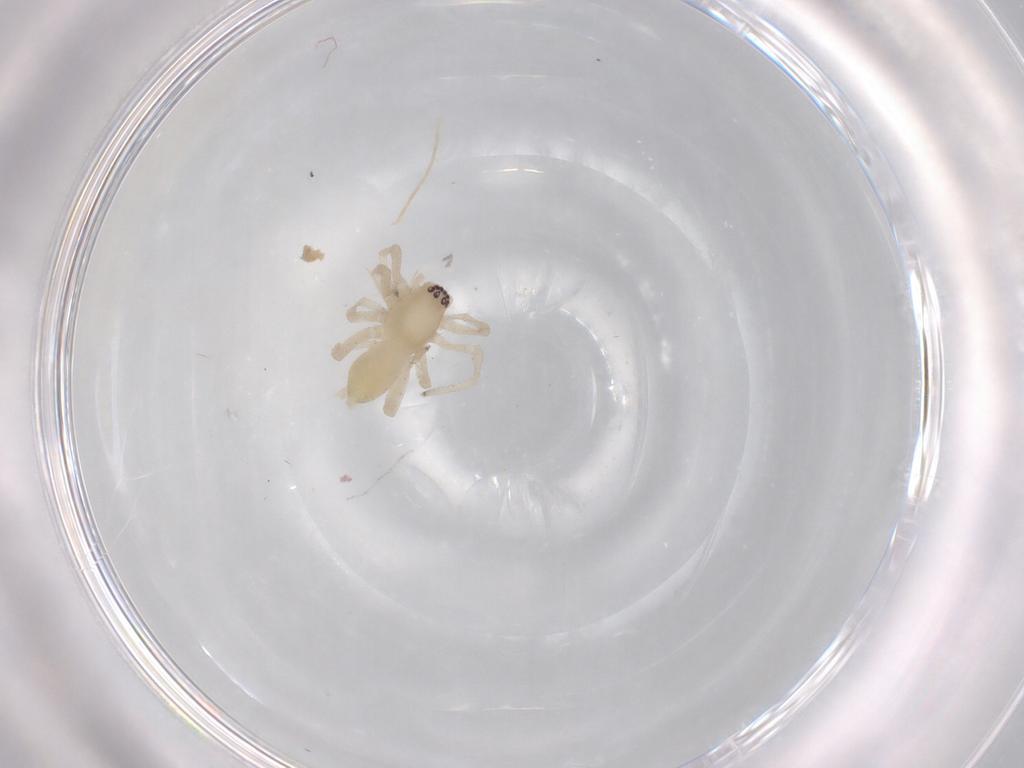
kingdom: Animalia
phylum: Arthropoda
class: Arachnida
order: Araneae
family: Anyphaenidae
